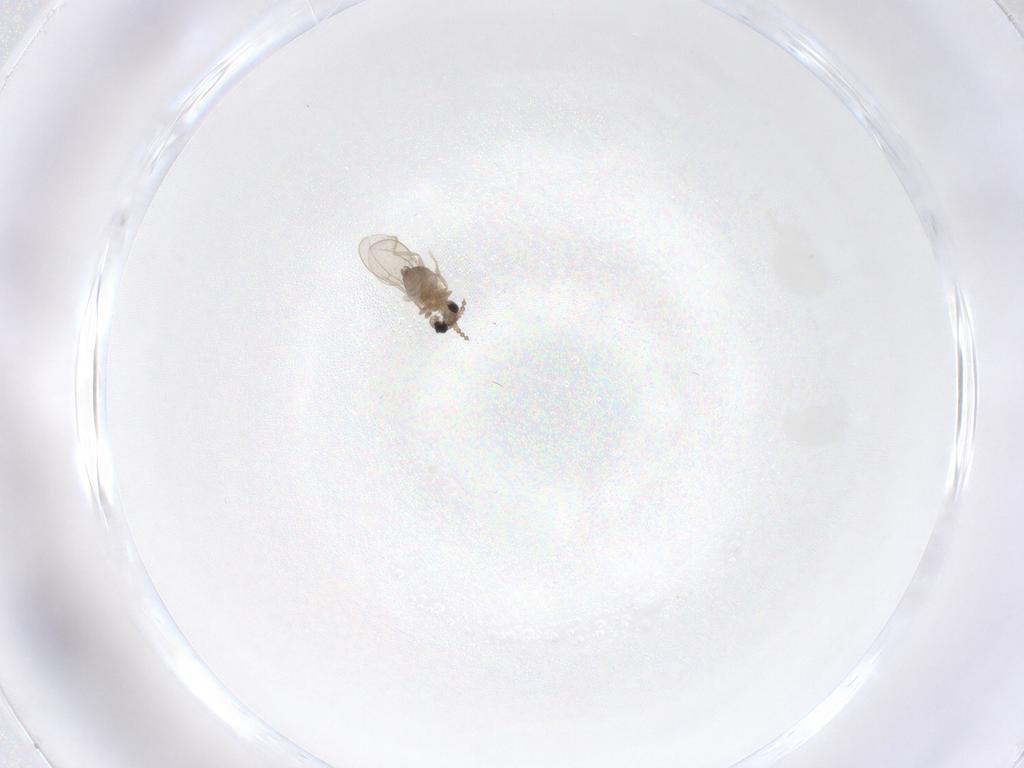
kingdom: Animalia
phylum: Arthropoda
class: Insecta
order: Diptera
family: Cecidomyiidae
